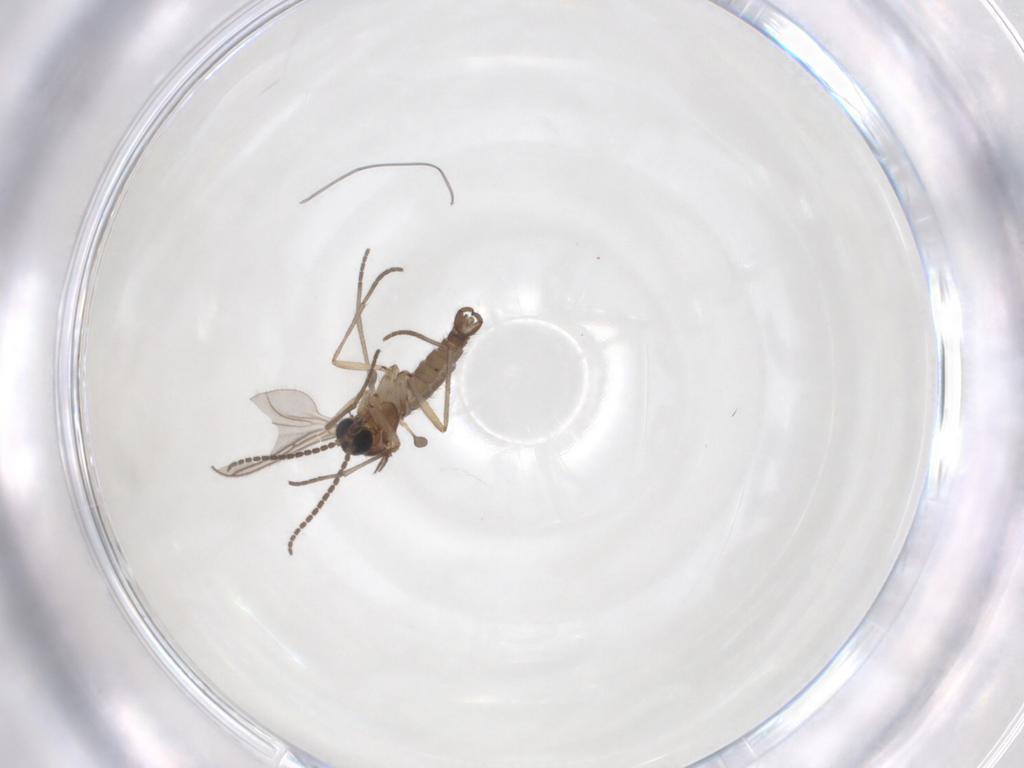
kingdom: Animalia
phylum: Arthropoda
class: Insecta
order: Diptera
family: Sciaridae
